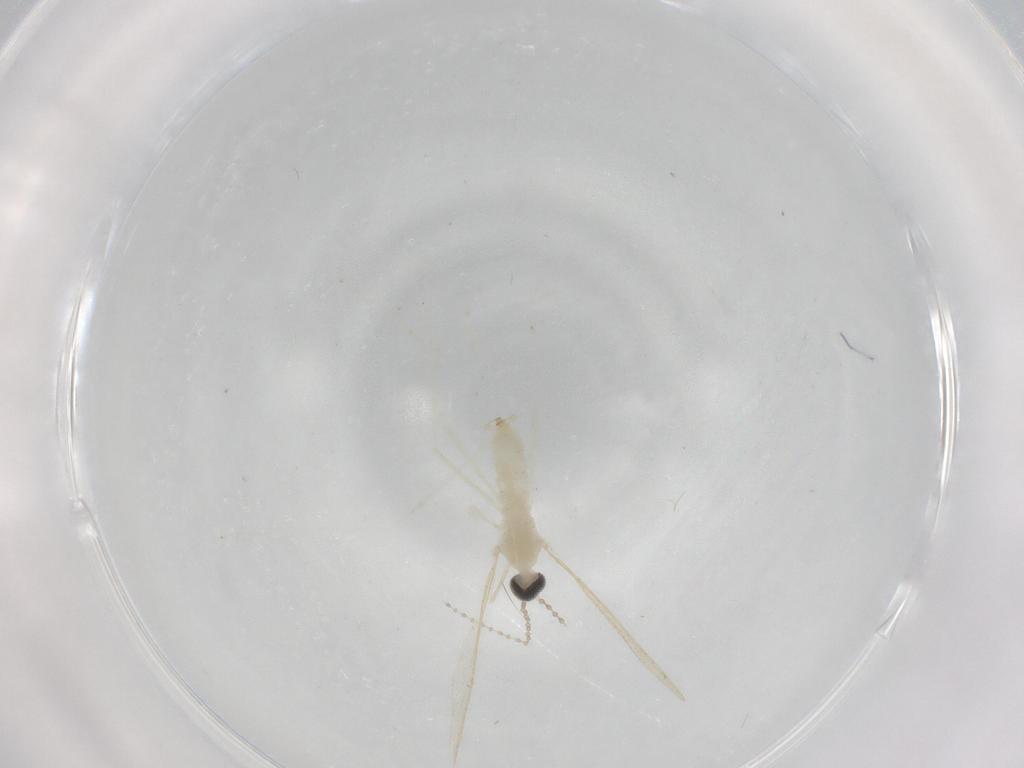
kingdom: Animalia
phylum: Arthropoda
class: Insecta
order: Diptera
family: Cecidomyiidae
